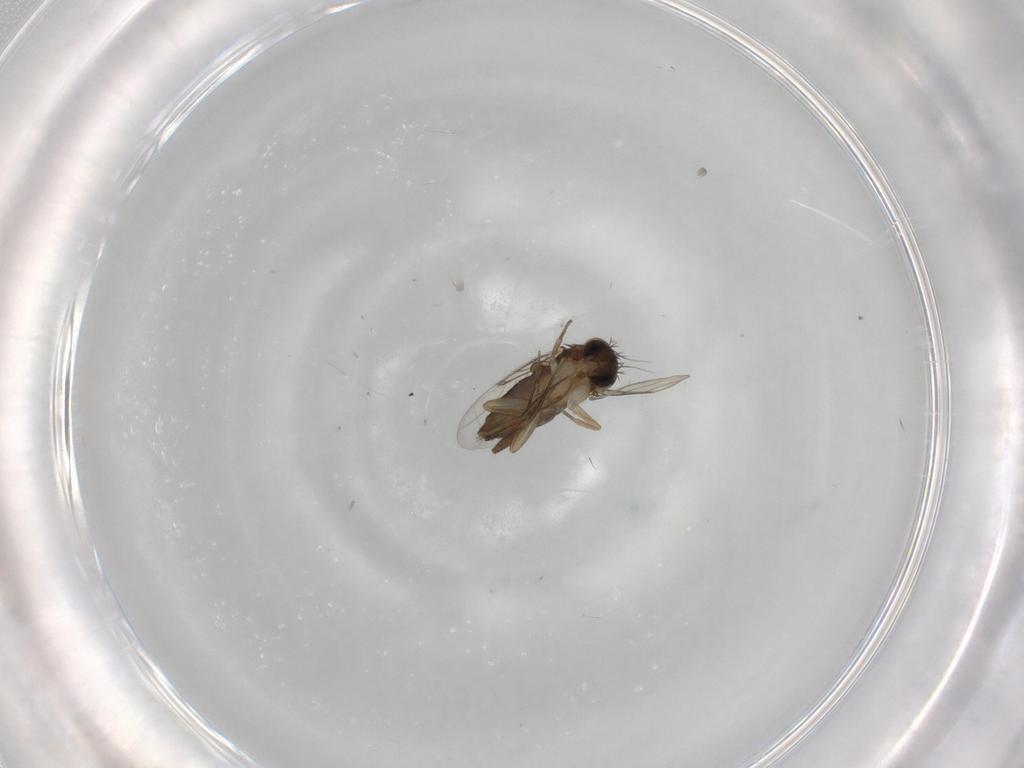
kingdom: Animalia
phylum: Arthropoda
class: Insecta
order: Diptera
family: Phoridae
